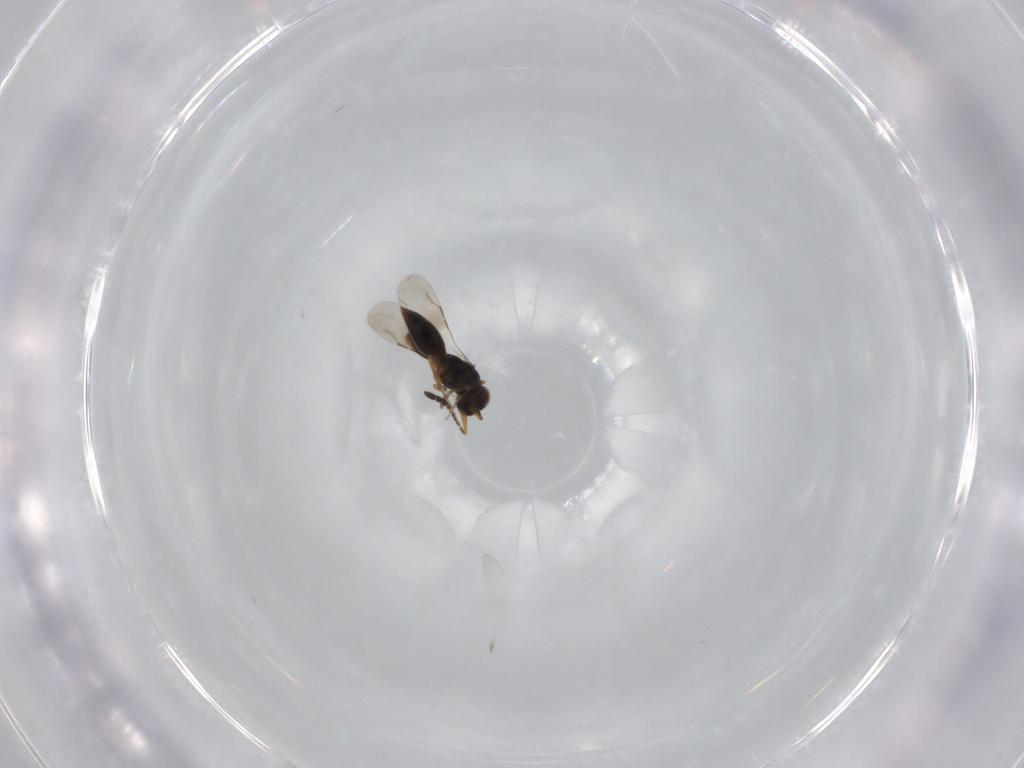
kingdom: Animalia
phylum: Arthropoda
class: Insecta
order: Hymenoptera
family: Ceraphronidae
